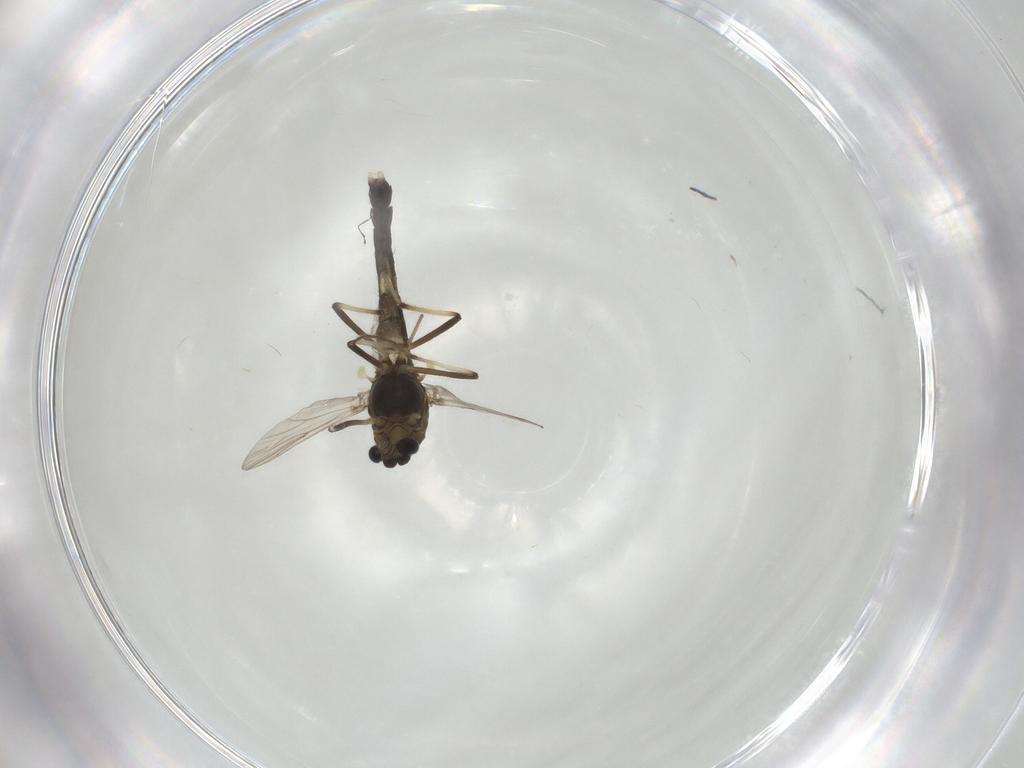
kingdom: Animalia
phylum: Arthropoda
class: Insecta
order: Diptera
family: Chironomidae
